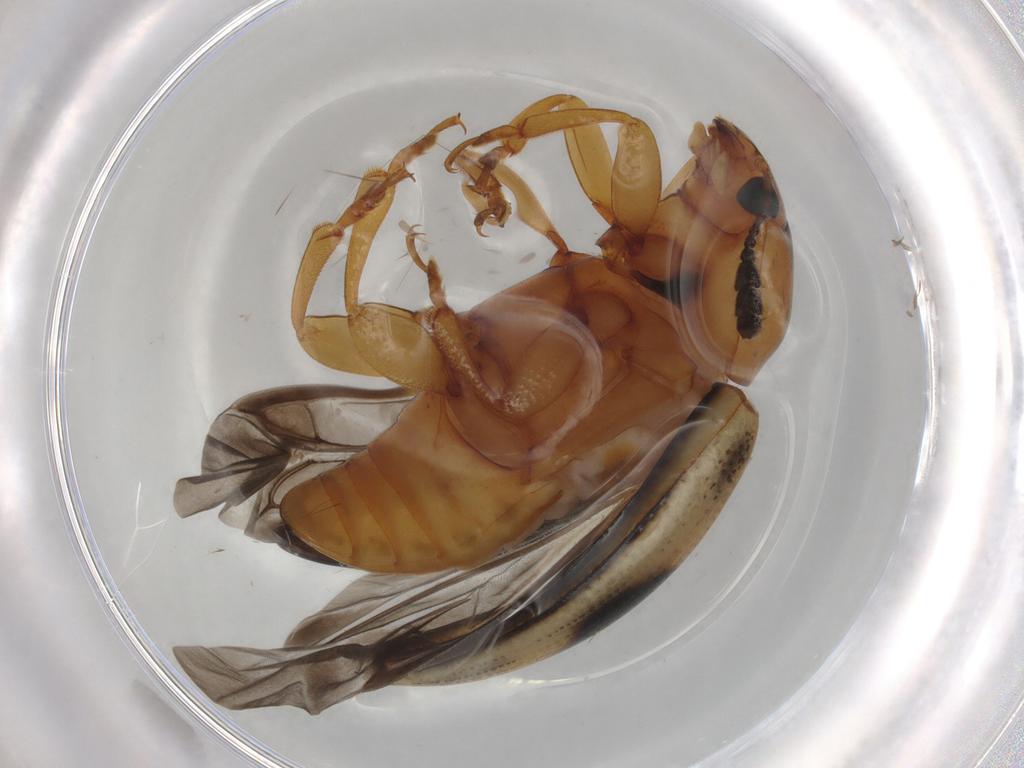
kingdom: Animalia
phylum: Arthropoda
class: Insecta
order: Coleoptera
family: Erotylidae
